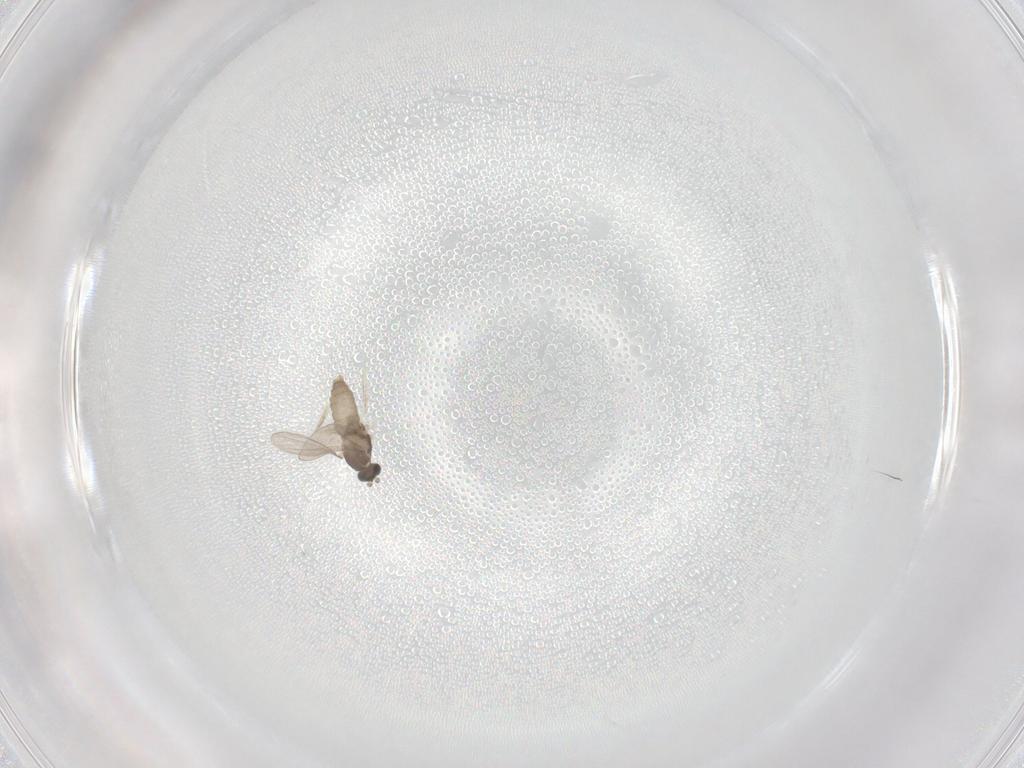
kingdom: Animalia
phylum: Arthropoda
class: Insecta
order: Diptera
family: Sciaridae
